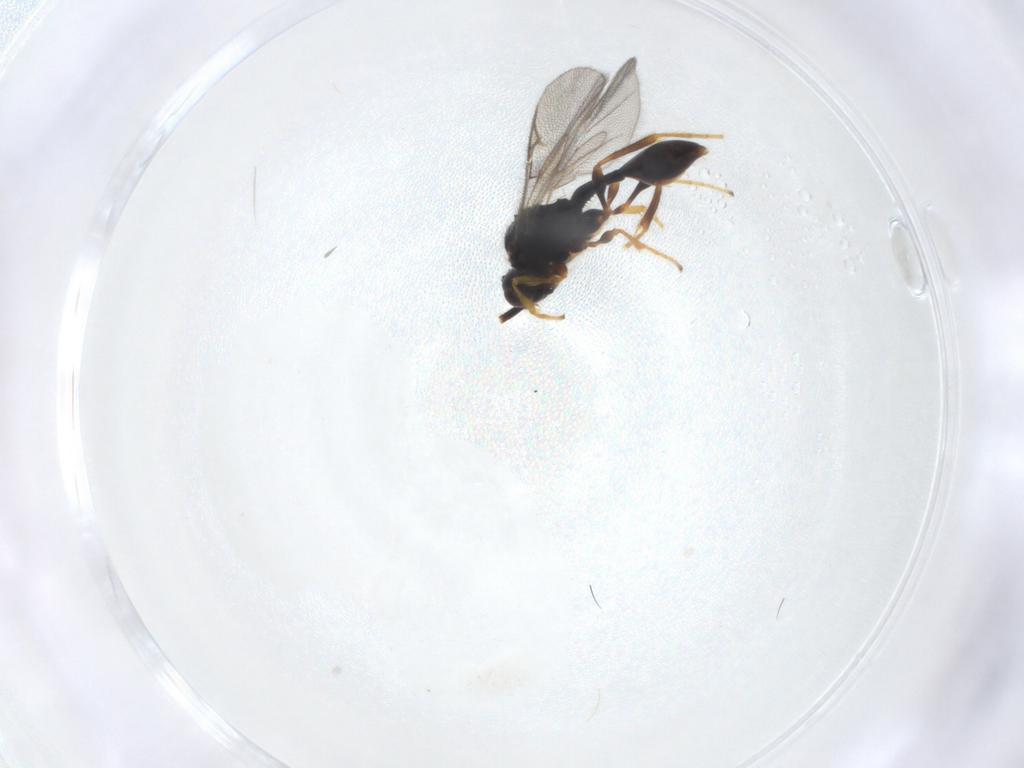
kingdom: Animalia
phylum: Arthropoda
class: Insecta
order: Hymenoptera
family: Diapriidae
